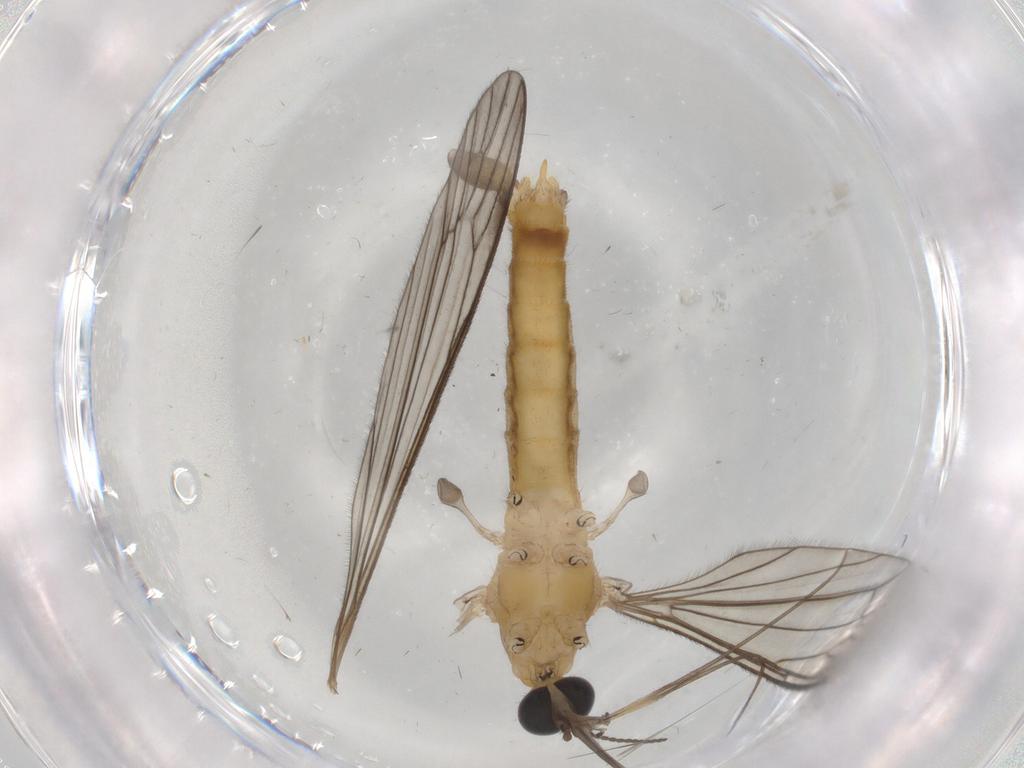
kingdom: Animalia
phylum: Arthropoda
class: Insecta
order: Diptera
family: Limoniidae
